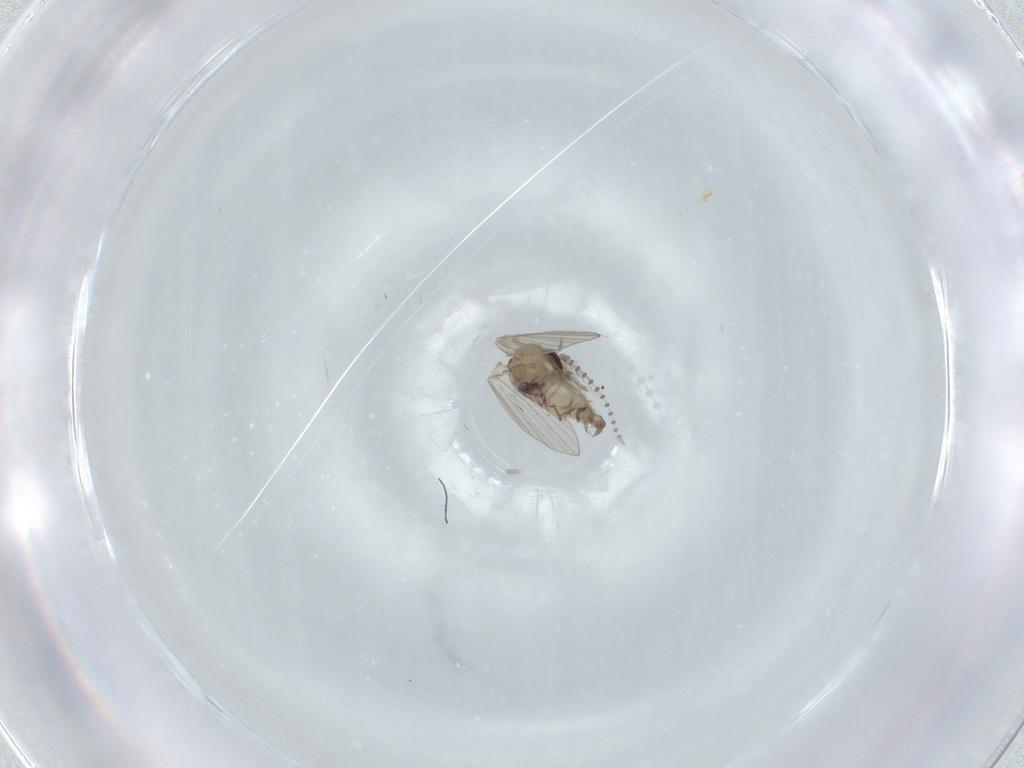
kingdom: Animalia
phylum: Arthropoda
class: Insecta
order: Diptera
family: Psychodidae
